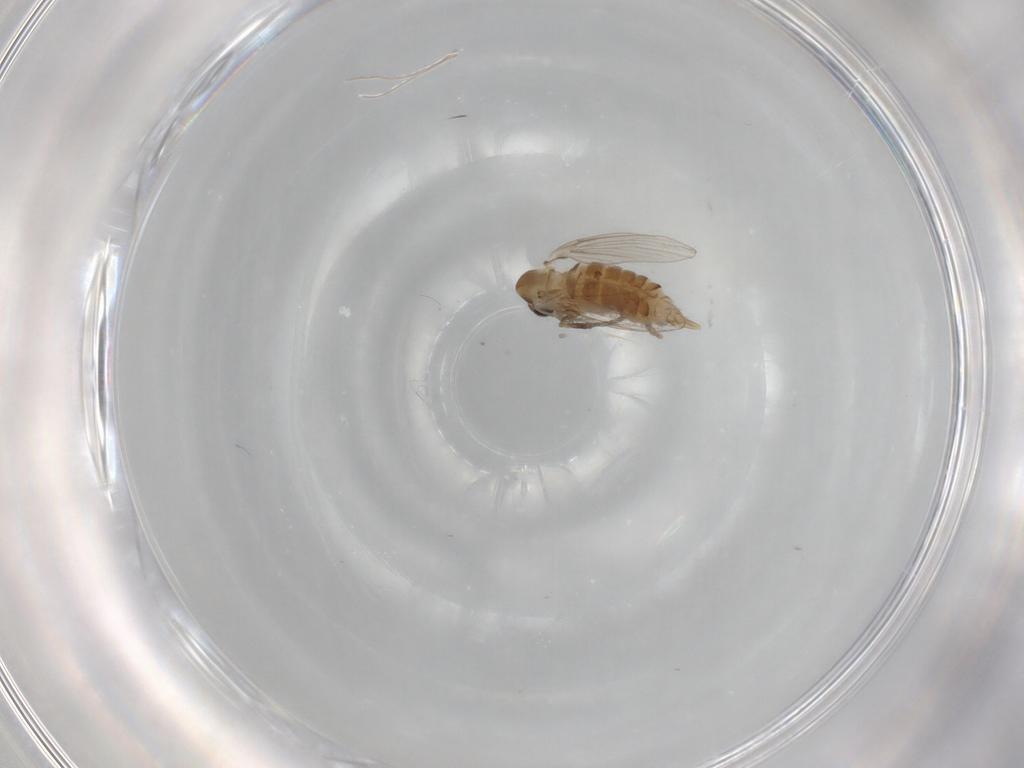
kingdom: Animalia
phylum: Arthropoda
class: Insecta
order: Diptera
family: Psychodidae
